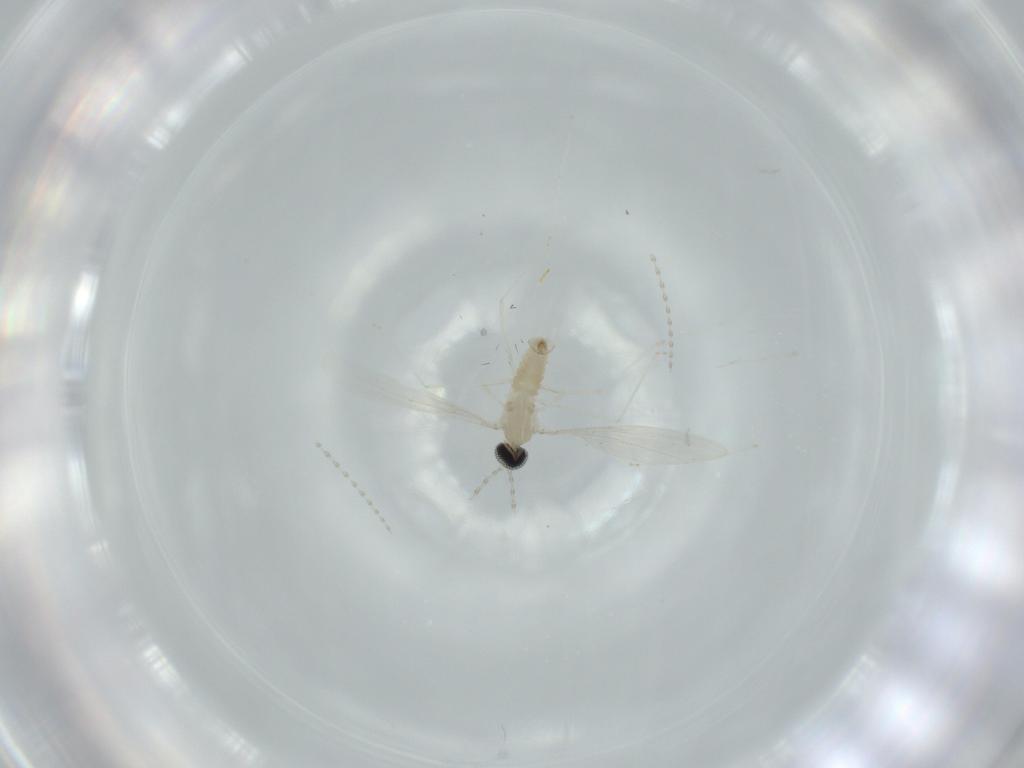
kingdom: Animalia
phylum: Arthropoda
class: Insecta
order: Diptera
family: Cecidomyiidae
